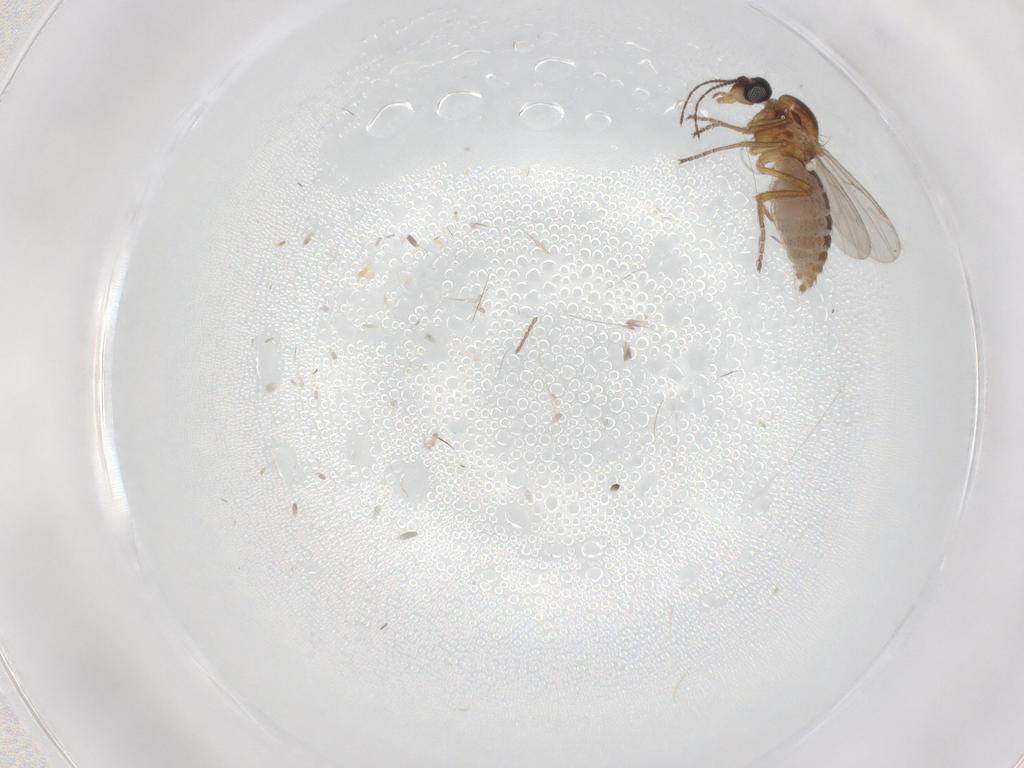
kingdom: Animalia
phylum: Arthropoda
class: Insecta
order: Diptera
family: Ceratopogonidae
